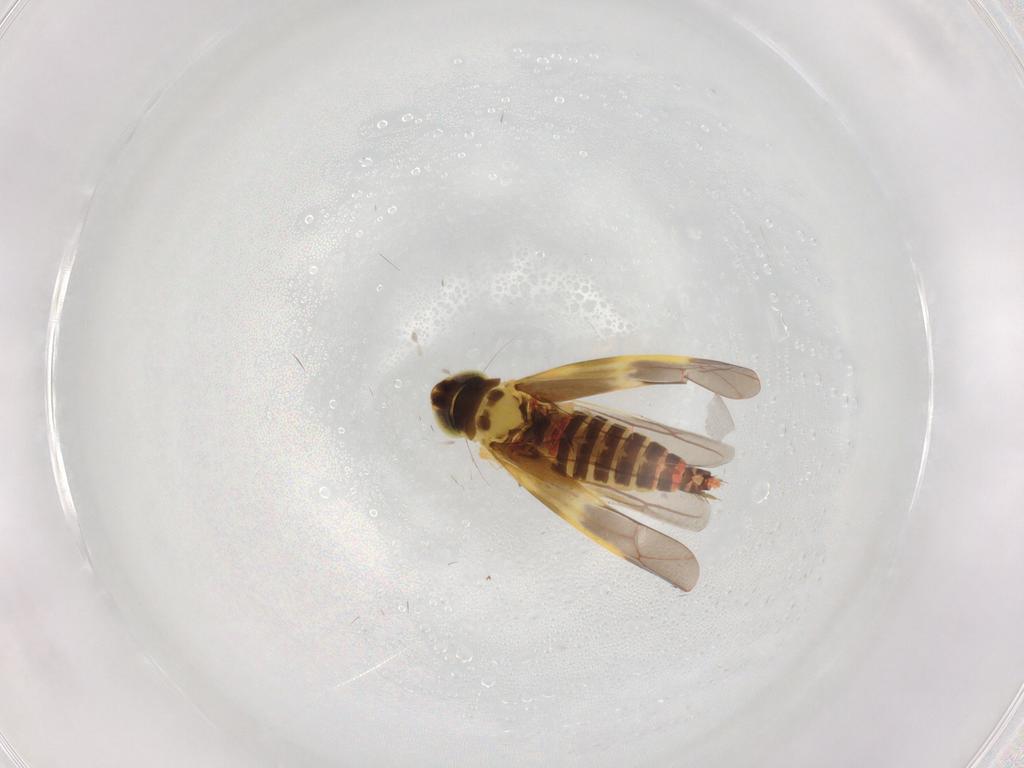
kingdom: Animalia
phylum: Arthropoda
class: Insecta
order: Hemiptera
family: Cicadellidae
